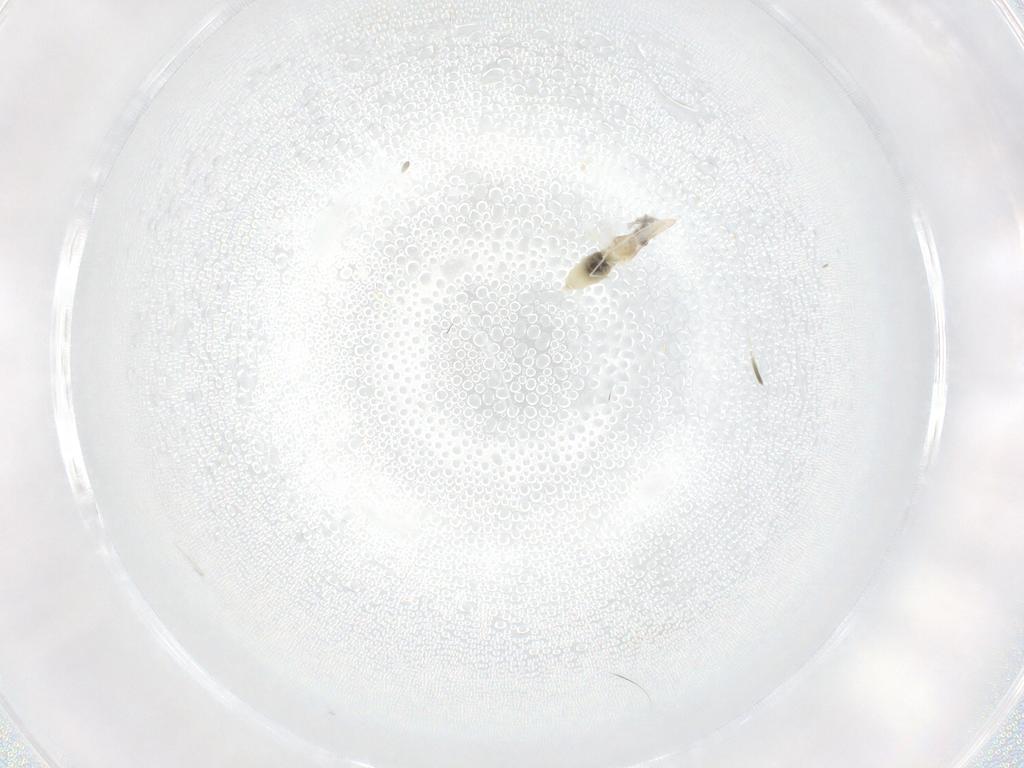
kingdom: Animalia
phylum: Arthropoda
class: Insecta
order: Diptera
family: Cecidomyiidae
